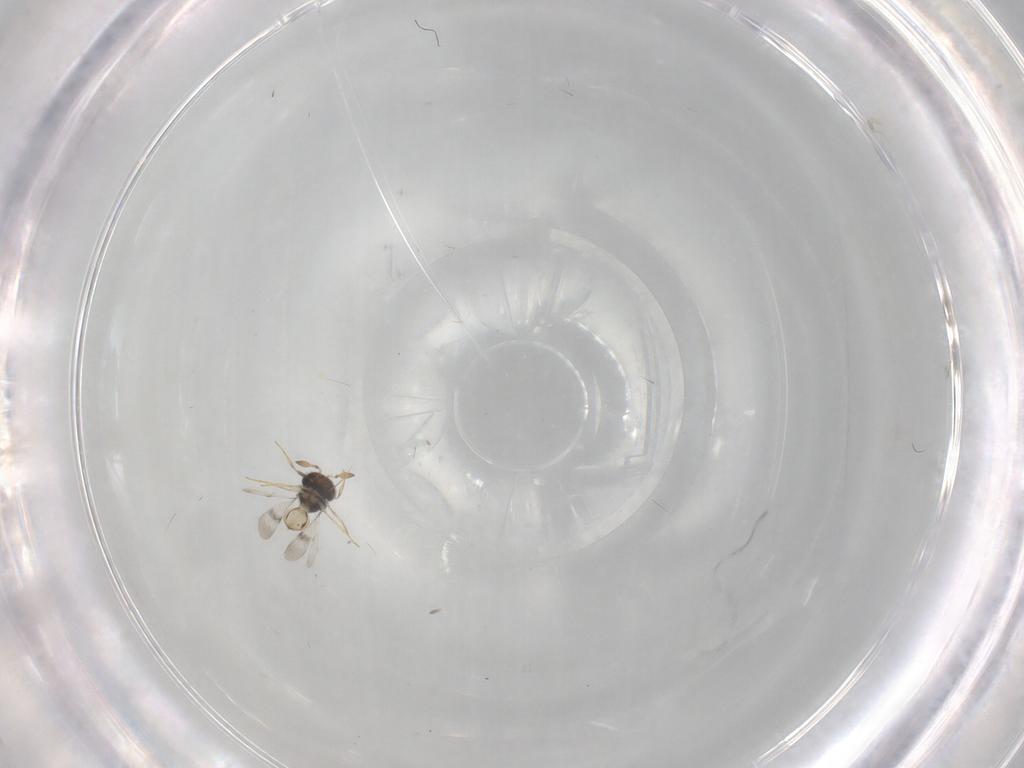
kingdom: Animalia
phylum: Arthropoda
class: Insecta
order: Hymenoptera
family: Scelionidae
